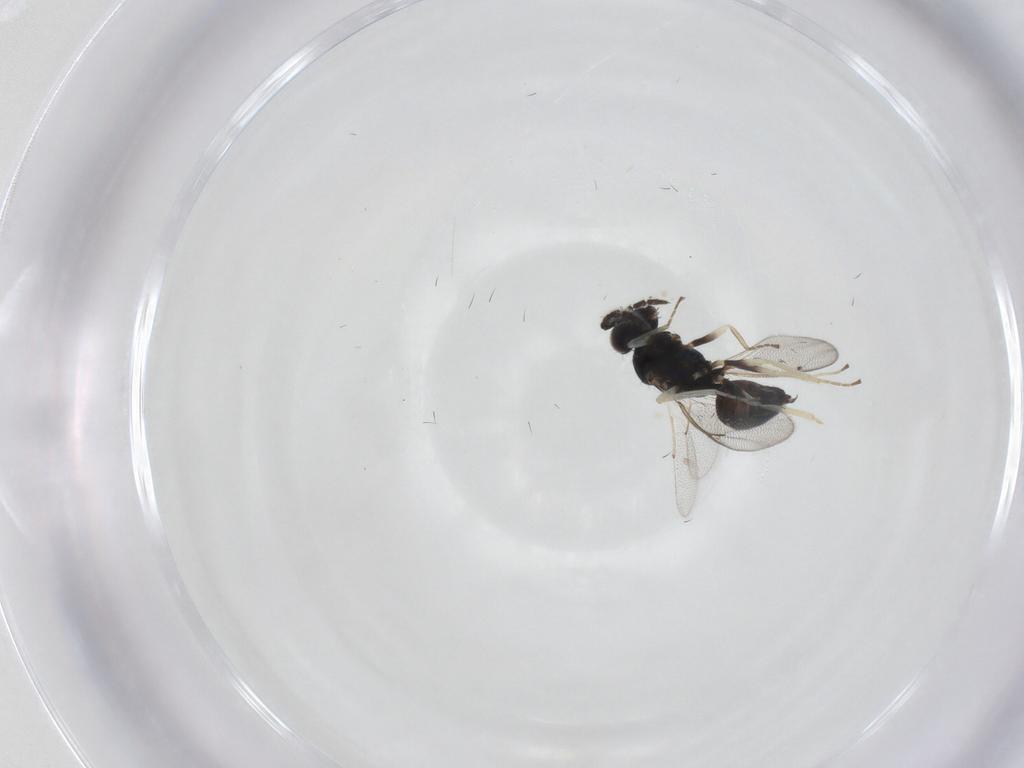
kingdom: Animalia
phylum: Arthropoda
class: Insecta
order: Hymenoptera
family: Eulophidae
